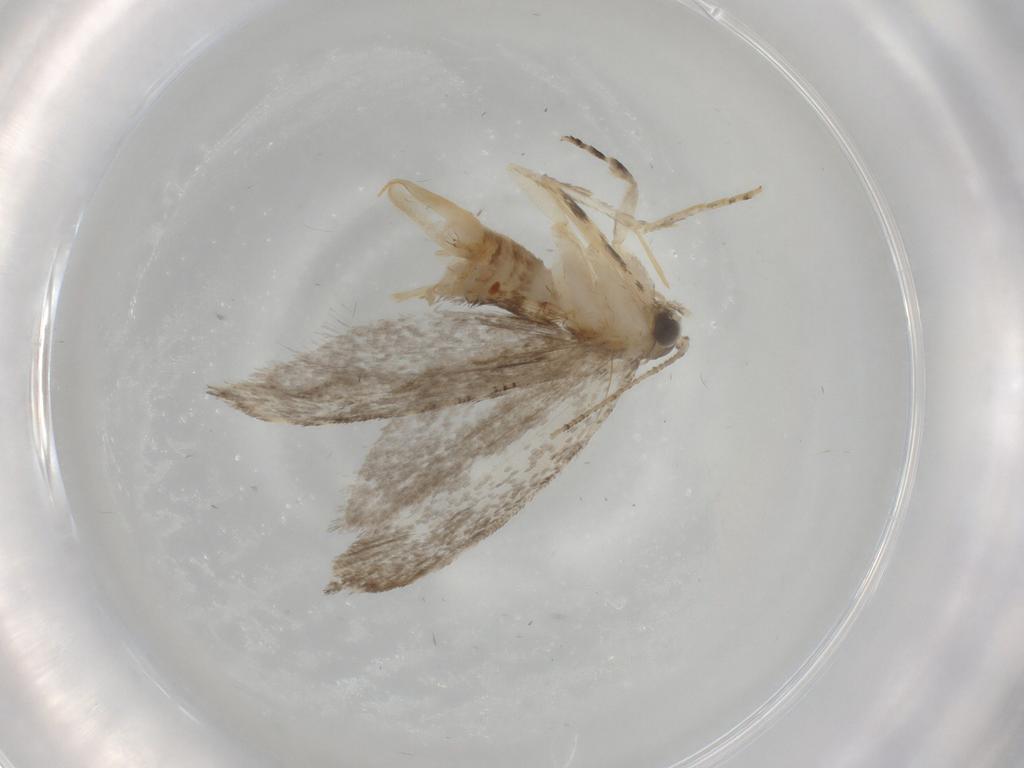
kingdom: Animalia
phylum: Arthropoda
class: Insecta
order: Lepidoptera
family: Tineidae
